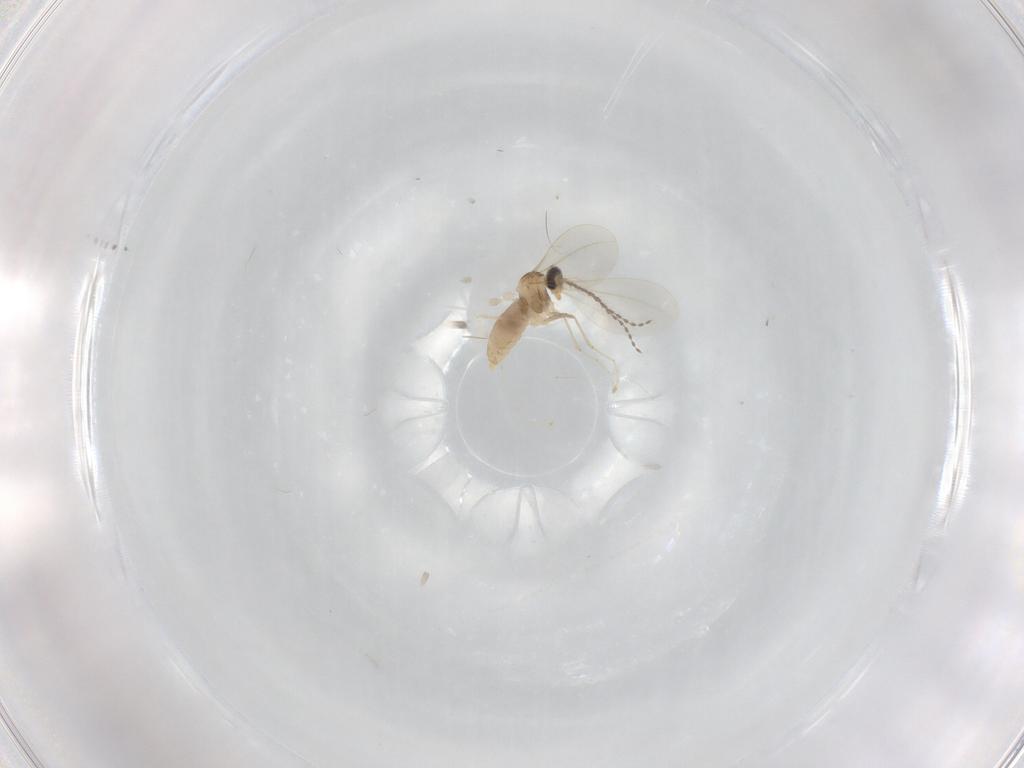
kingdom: Animalia
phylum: Arthropoda
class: Insecta
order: Diptera
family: Cecidomyiidae
